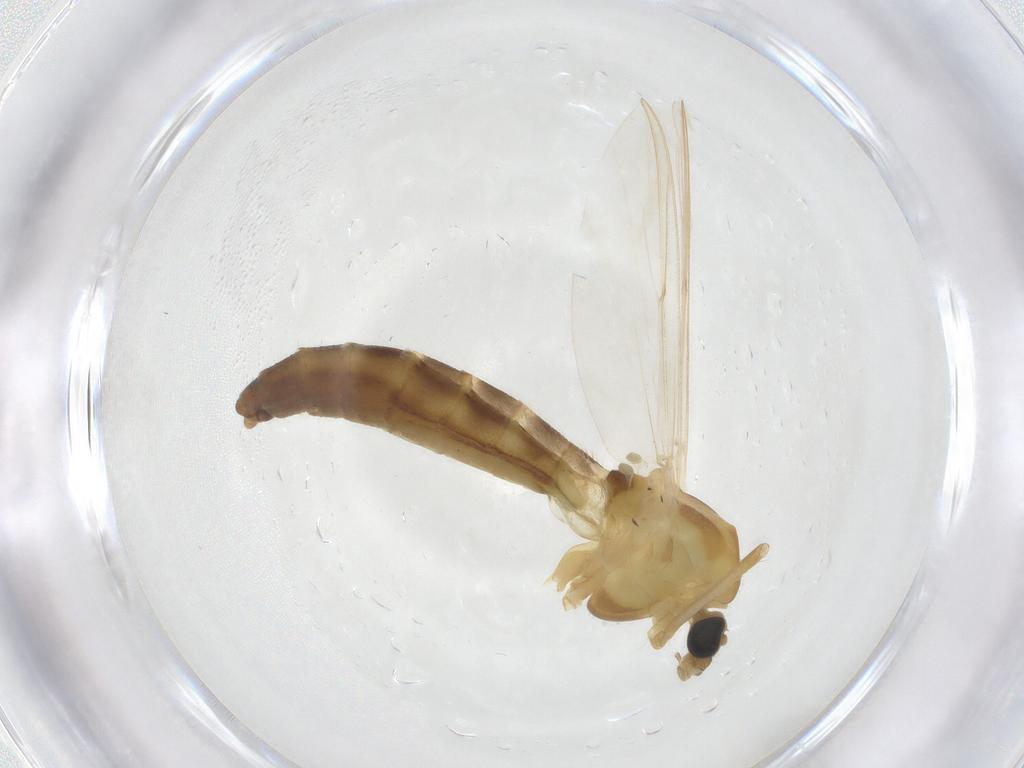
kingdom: Animalia
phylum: Arthropoda
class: Insecta
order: Diptera
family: Chironomidae
